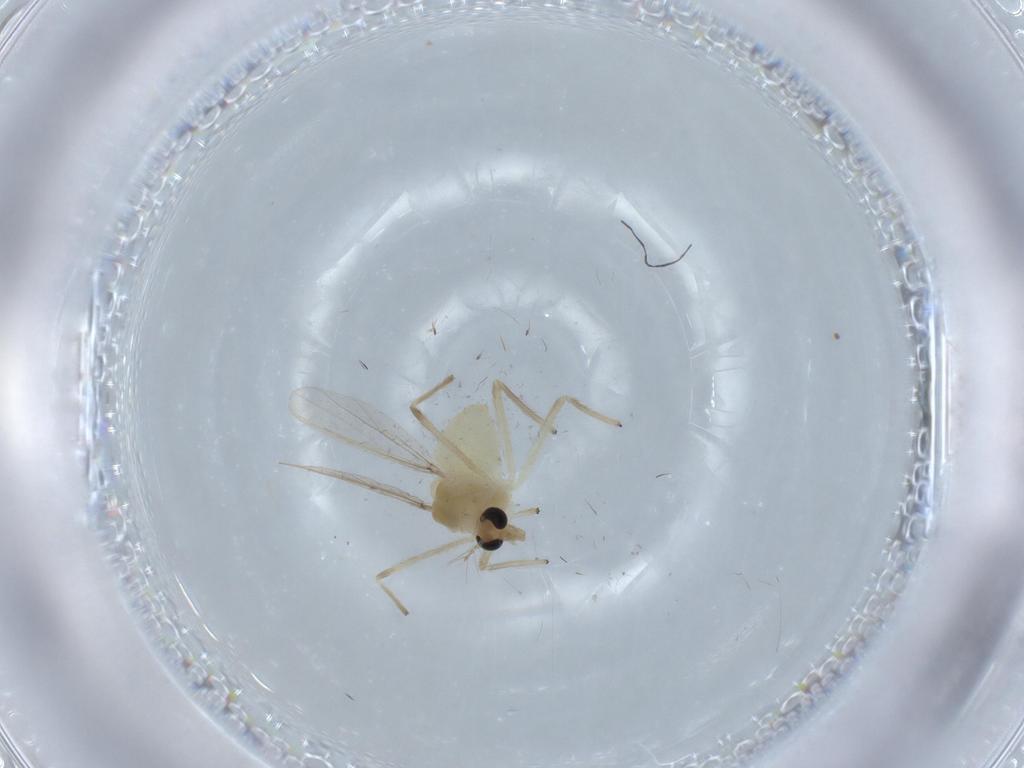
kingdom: Animalia
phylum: Arthropoda
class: Insecta
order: Diptera
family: Chironomidae
